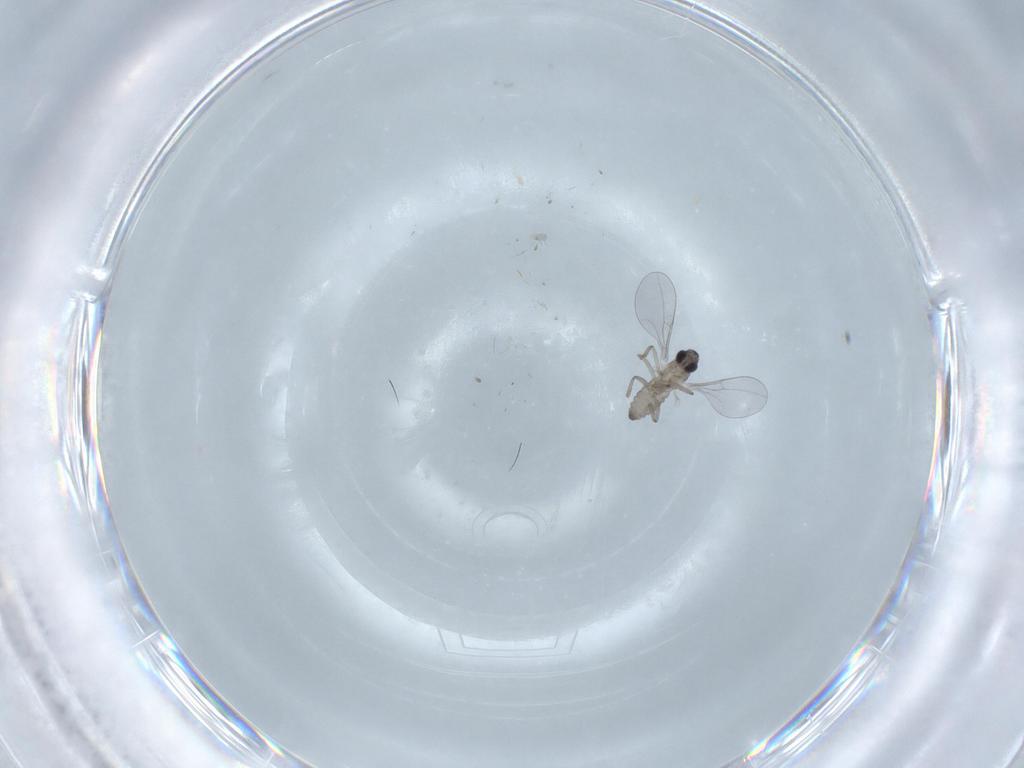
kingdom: Animalia
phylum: Arthropoda
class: Insecta
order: Diptera
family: Cecidomyiidae
